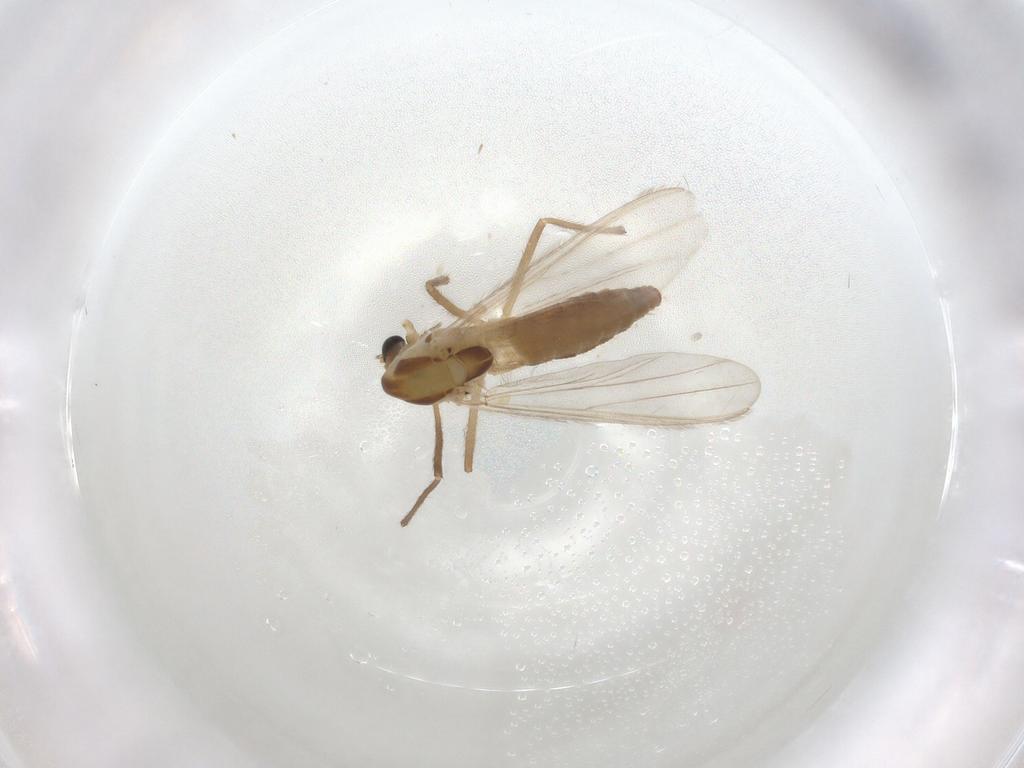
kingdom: Animalia
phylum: Arthropoda
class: Insecta
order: Diptera
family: Chironomidae
